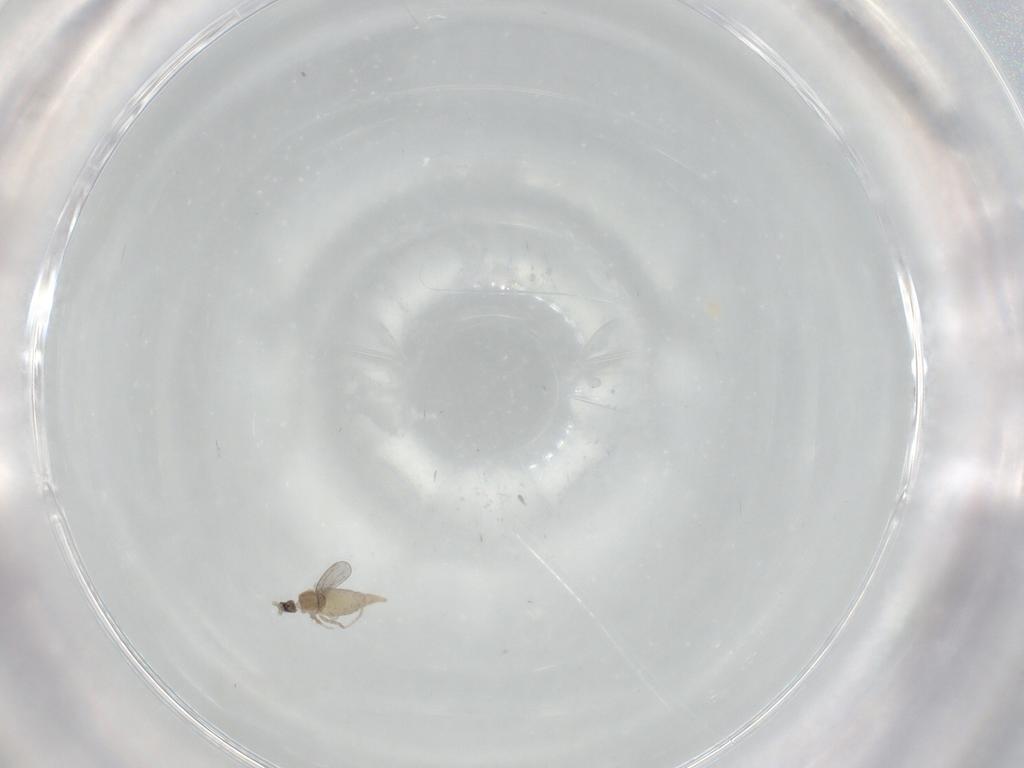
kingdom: Animalia
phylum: Arthropoda
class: Insecta
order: Diptera
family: Cecidomyiidae
